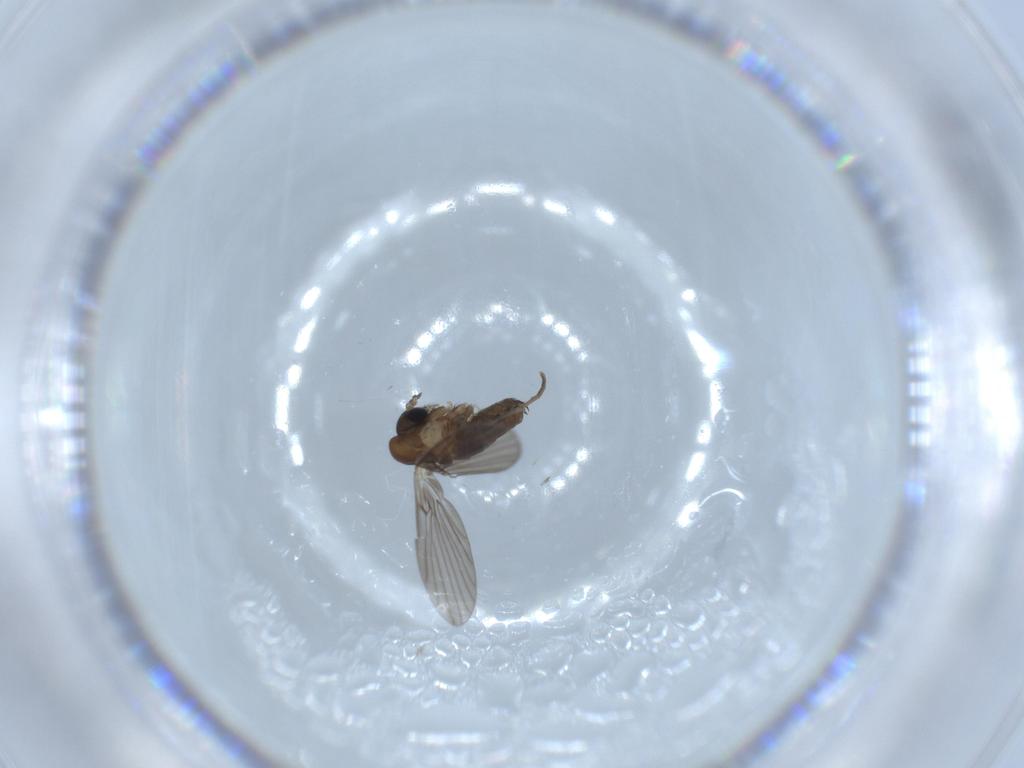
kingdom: Animalia
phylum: Arthropoda
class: Insecta
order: Diptera
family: Psychodidae
